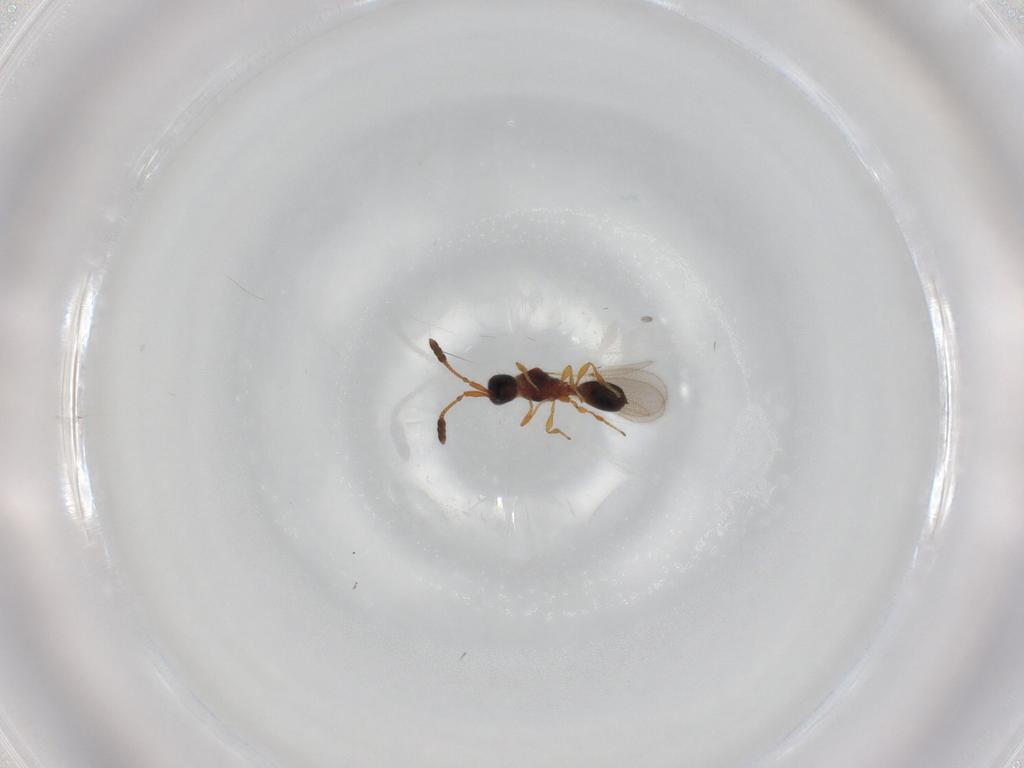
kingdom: Animalia
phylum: Arthropoda
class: Insecta
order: Hymenoptera
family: Diapriidae
